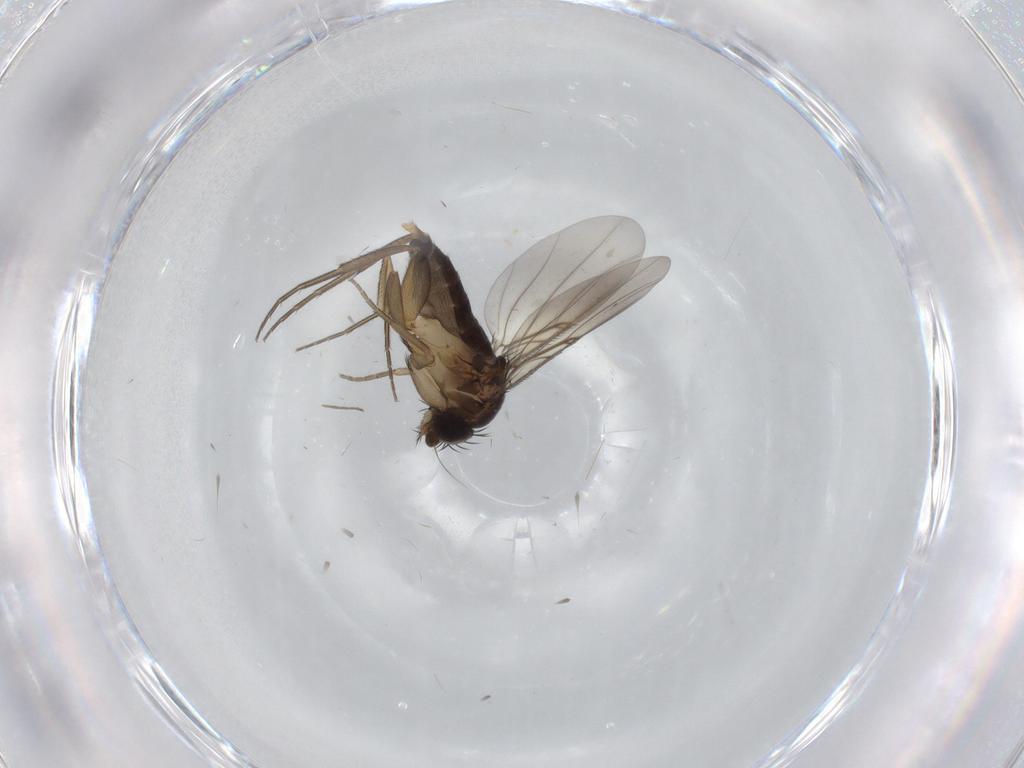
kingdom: Animalia
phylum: Arthropoda
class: Insecta
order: Diptera
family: Phoridae
